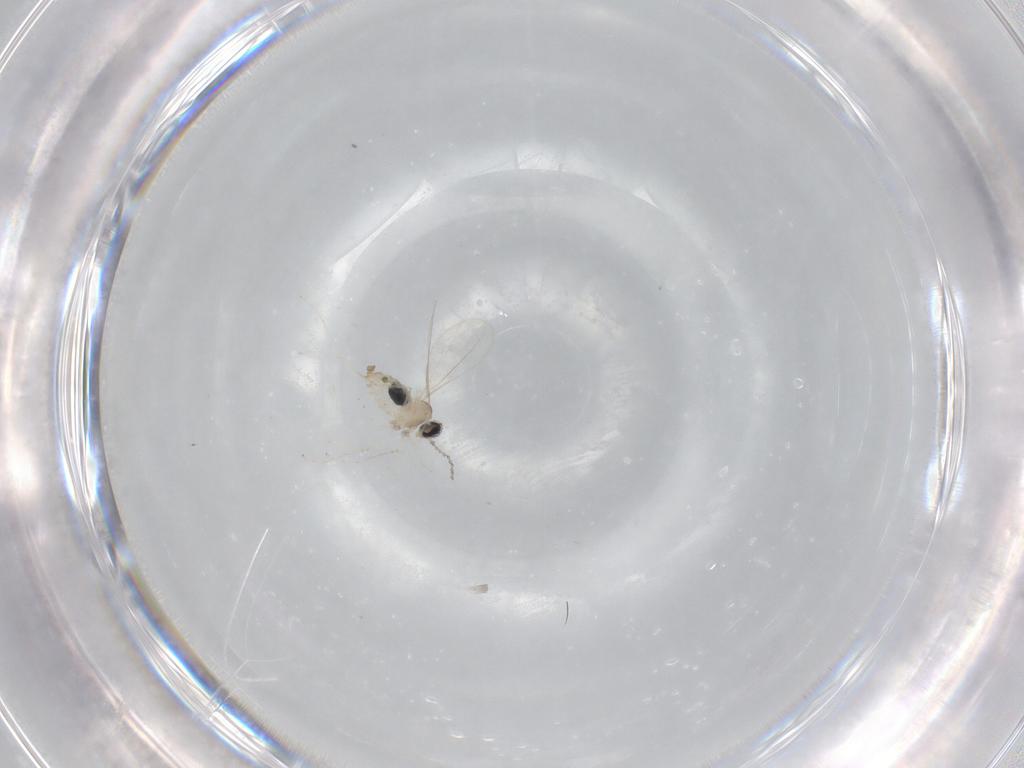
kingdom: Animalia
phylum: Arthropoda
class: Insecta
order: Diptera
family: Cecidomyiidae
